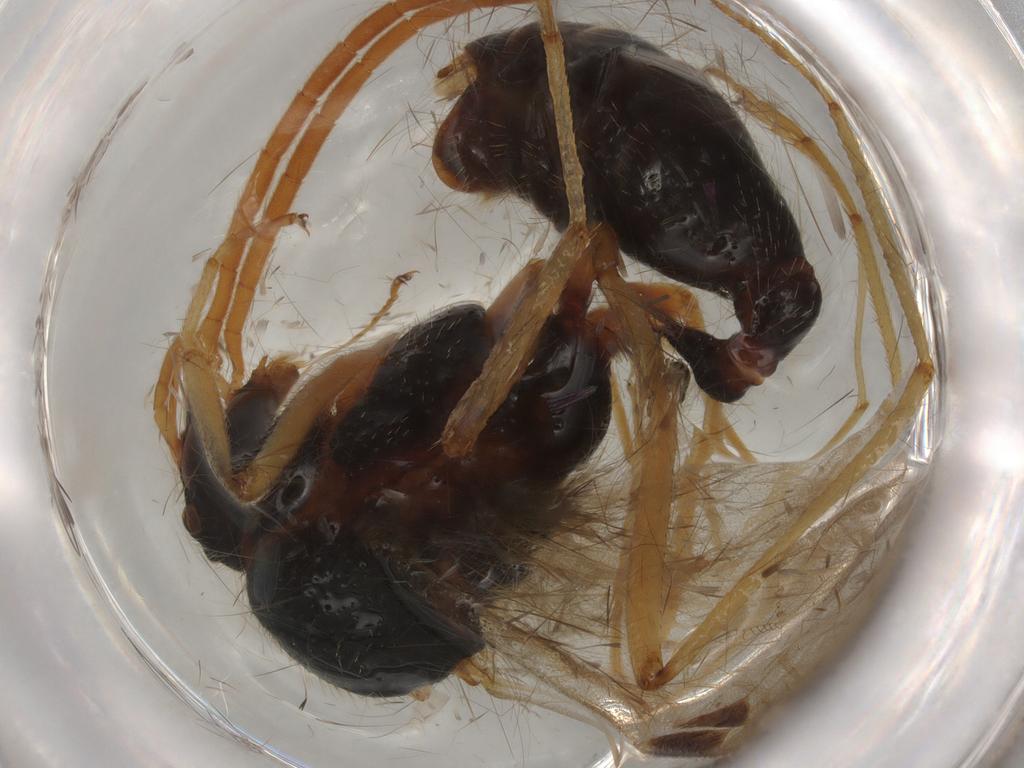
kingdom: Animalia
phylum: Arthropoda
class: Insecta
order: Hymenoptera
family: Formicidae
